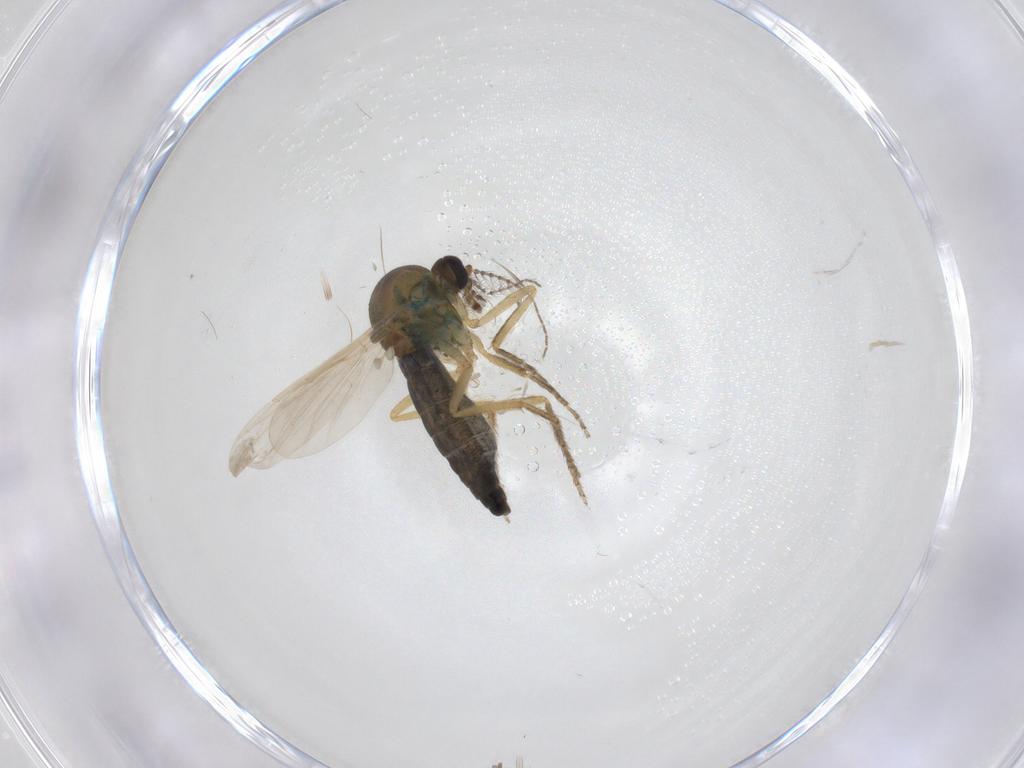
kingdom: Animalia
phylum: Arthropoda
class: Insecta
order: Diptera
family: Chironomidae
